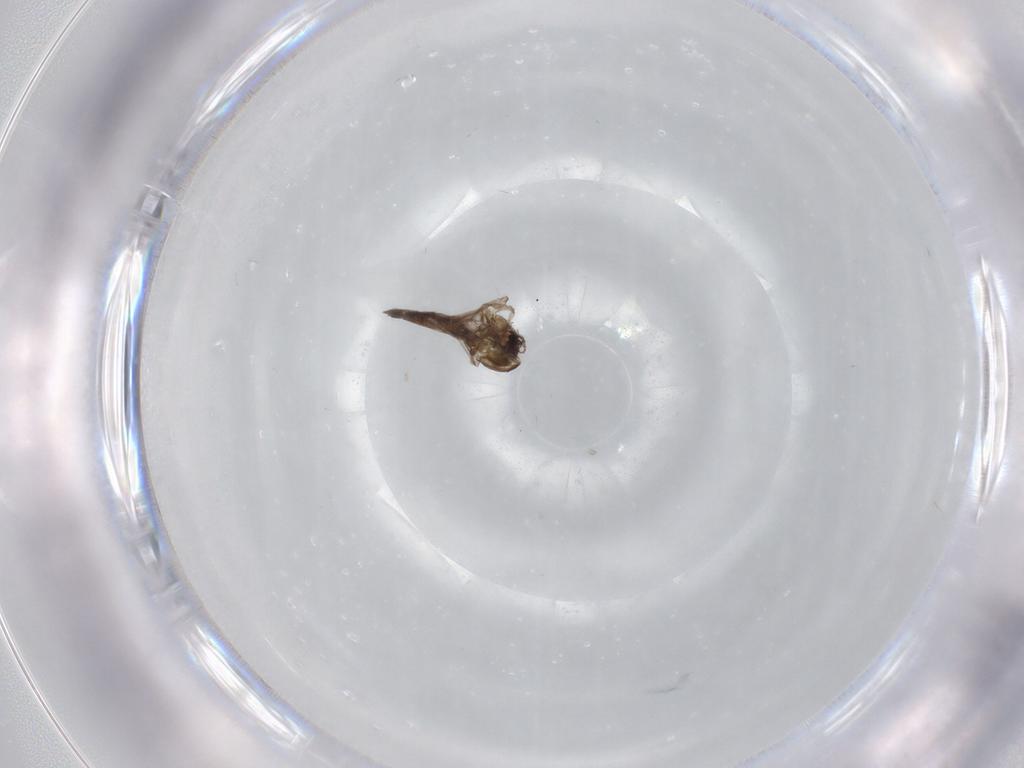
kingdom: Animalia
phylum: Arthropoda
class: Insecta
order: Diptera
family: Chironomidae
